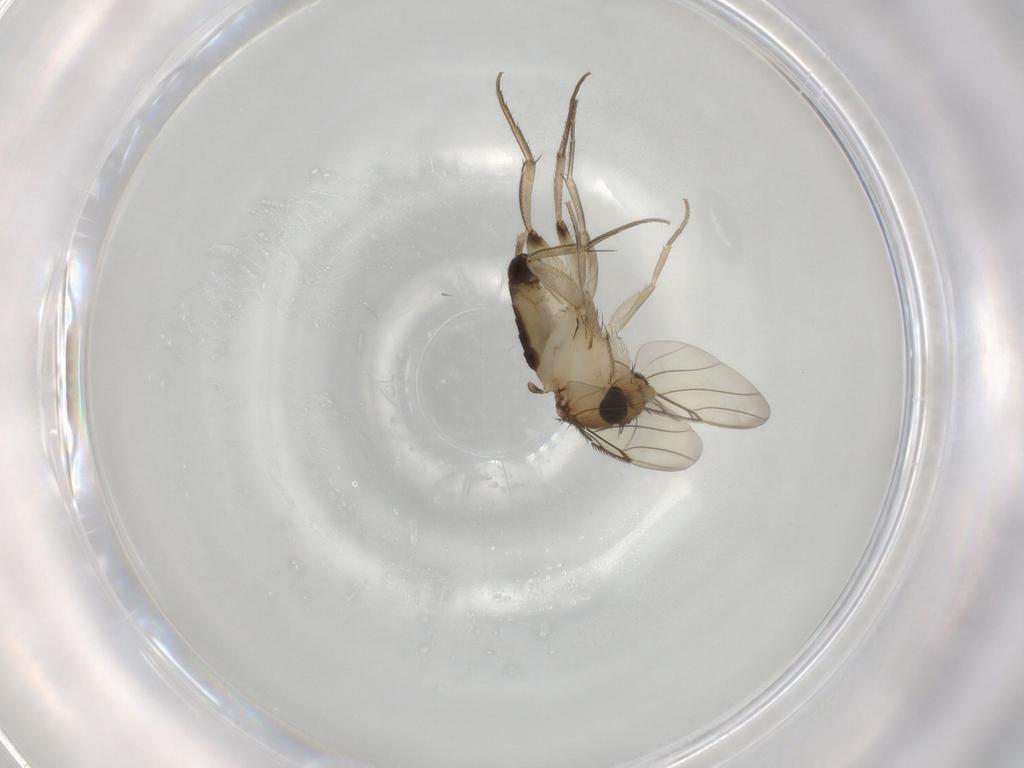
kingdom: Animalia
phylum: Arthropoda
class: Insecta
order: Diptera
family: Phoridae
